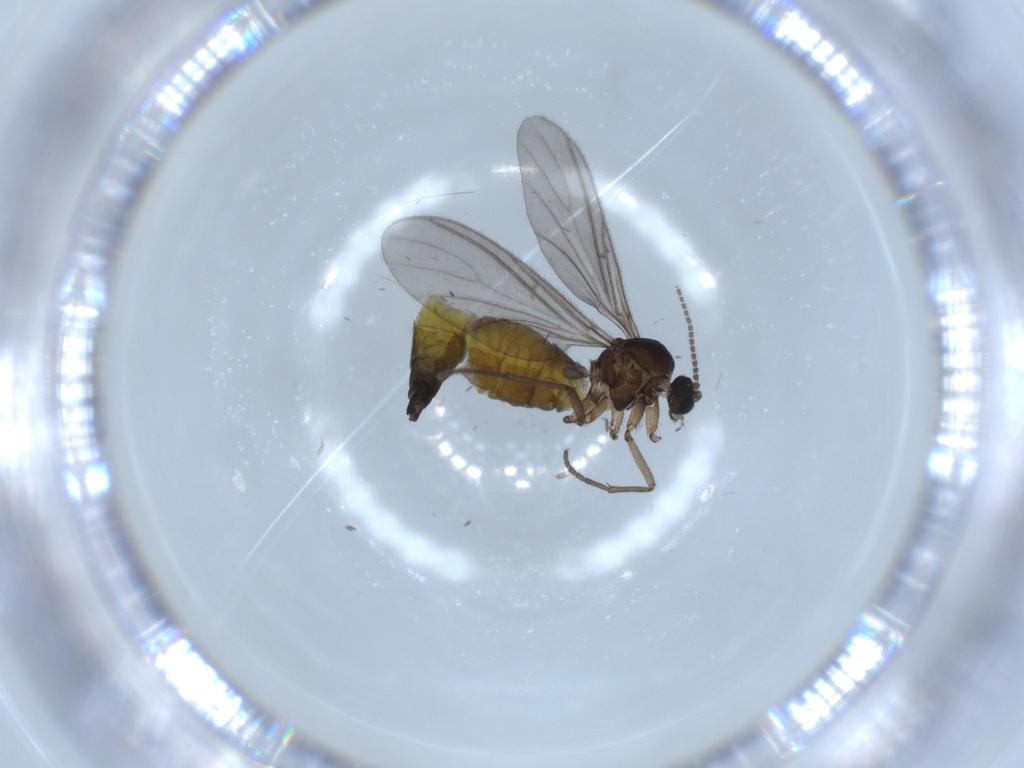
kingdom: Animalia
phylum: Arthropoda
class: Insecta
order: Diptera
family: Sciaridae
